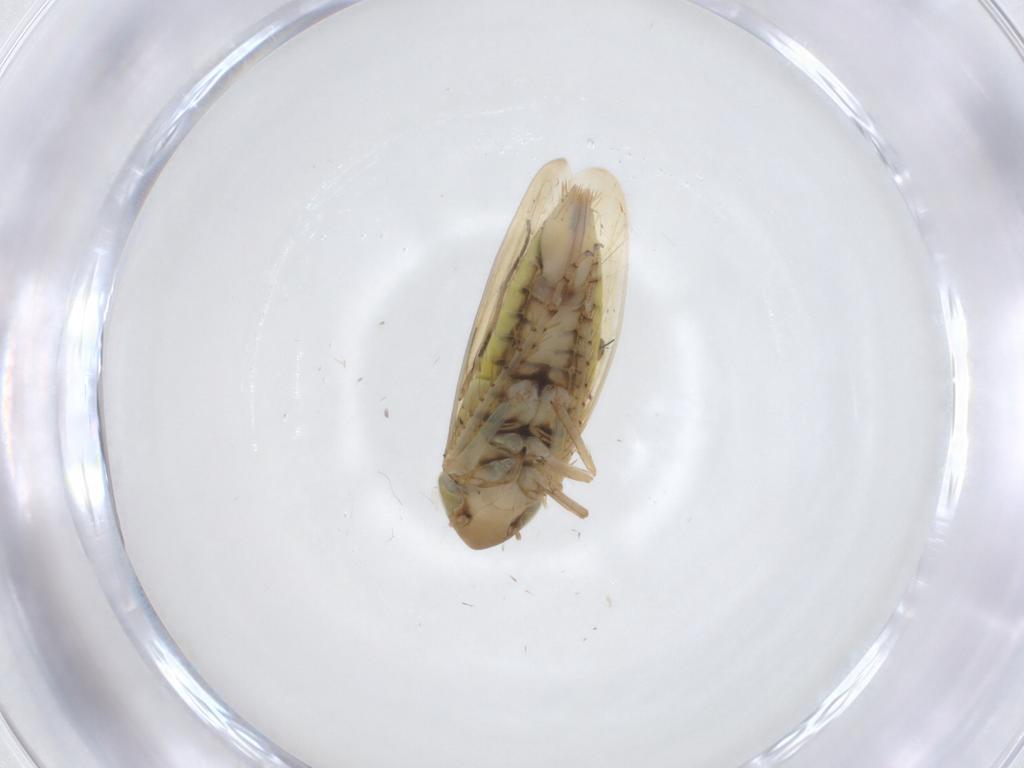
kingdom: Animalia
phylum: Arthropoda
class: Insecta
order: Hemiptera
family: Cicadellidae
